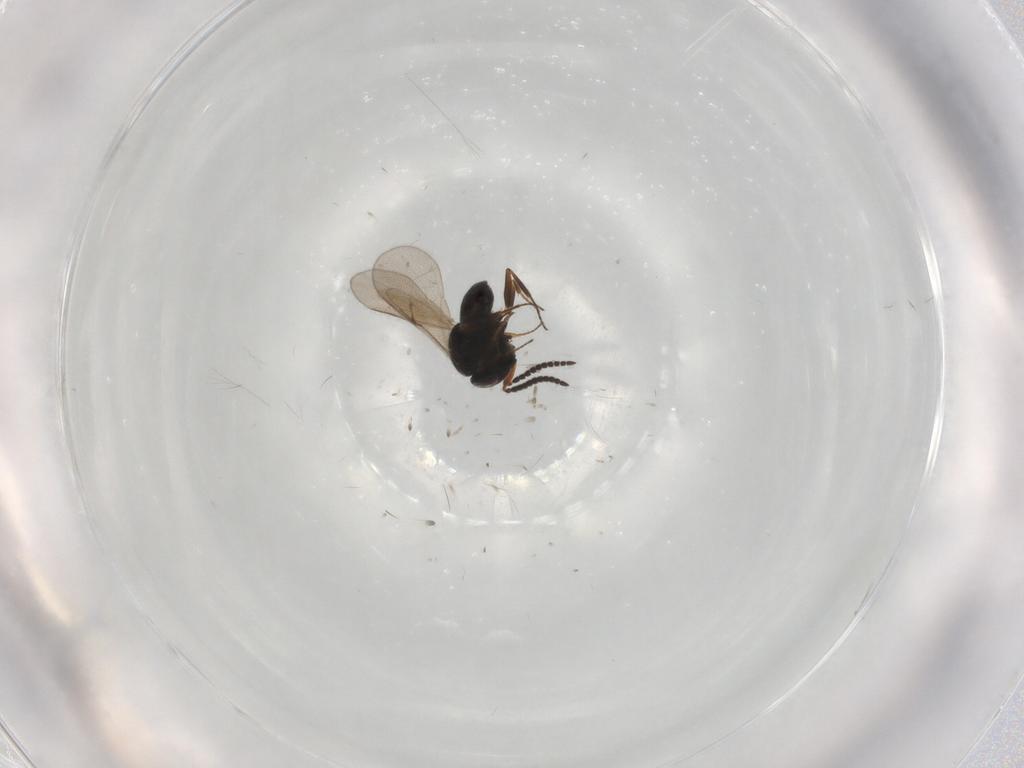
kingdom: Animalia
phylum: Arthropoda
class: Insecta
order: Hymenoptera
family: Scelionidae
